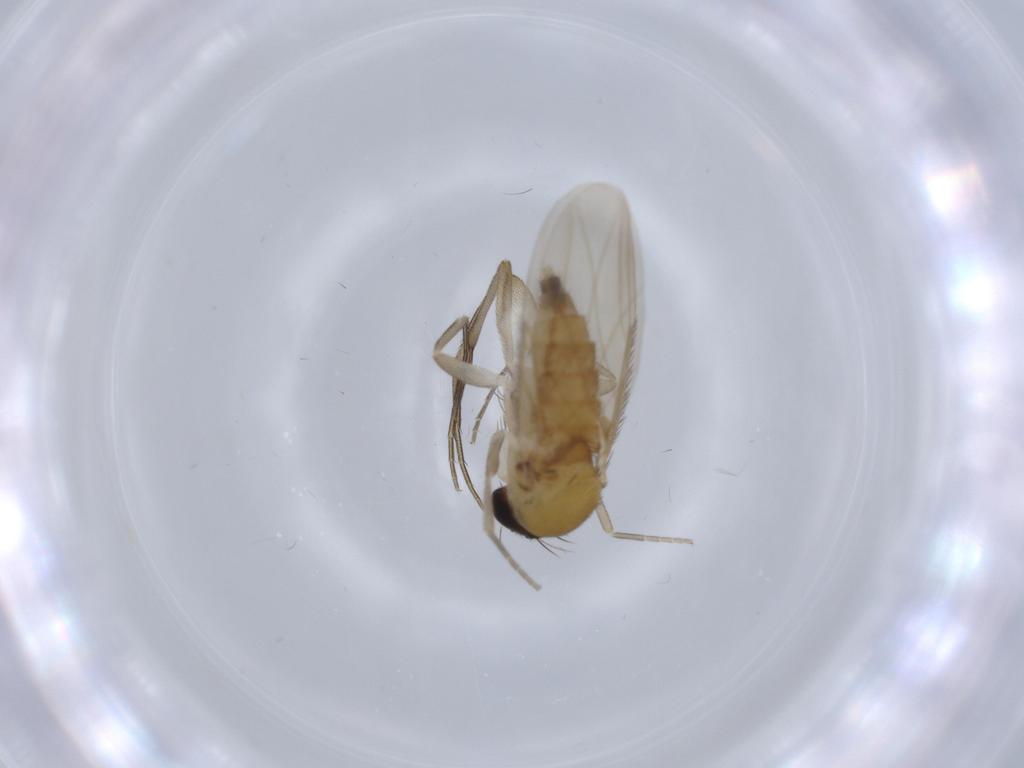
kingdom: Animalia
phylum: Arthropoda
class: Insecta
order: Diptera
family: Phoridae
